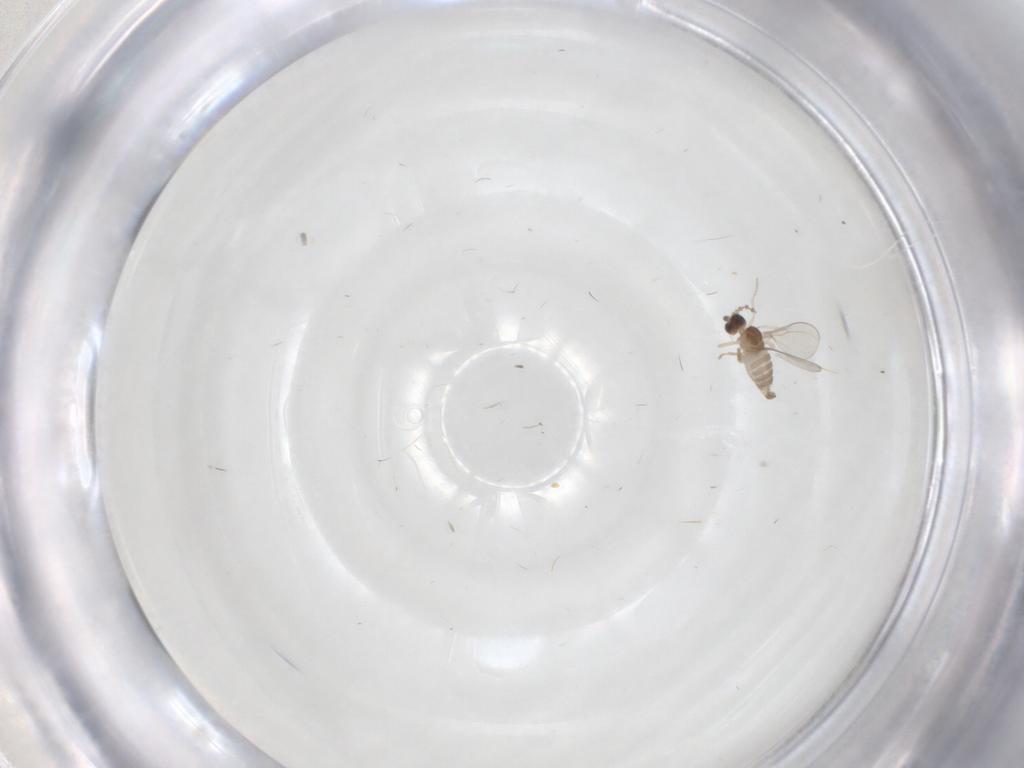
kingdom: Animalia
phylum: Arthropoda
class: Insecta
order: Diptera
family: Cecidomyiidae
